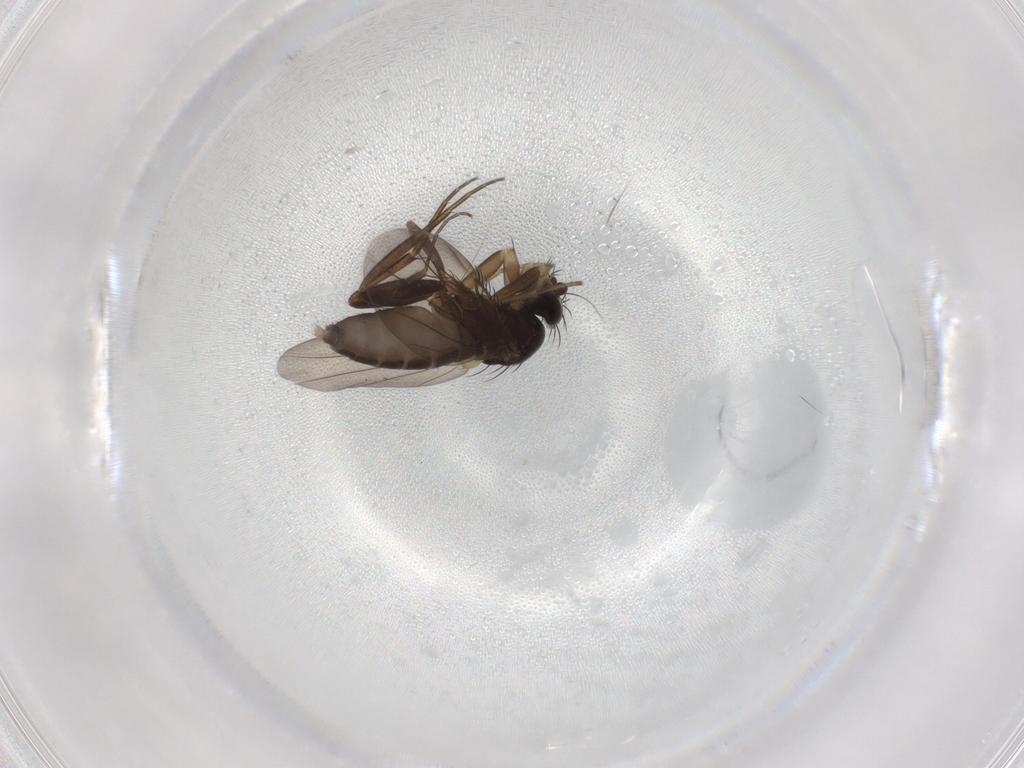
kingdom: Animalia
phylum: Arthropoda
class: Insecta
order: Diptera
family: Phoridae
